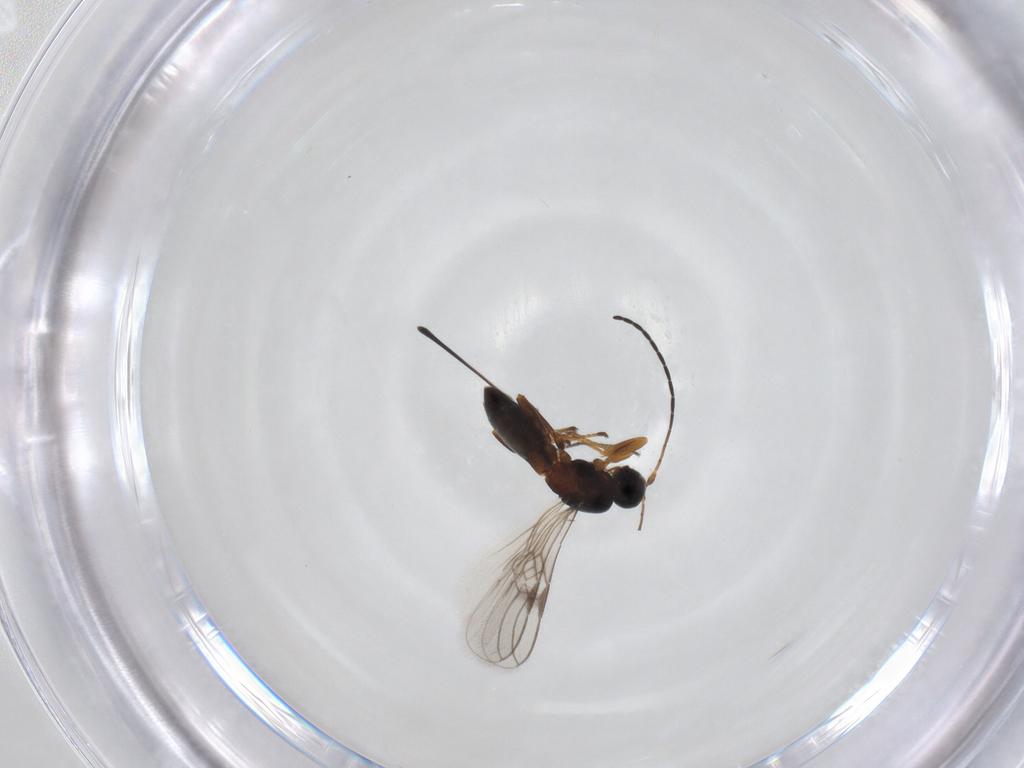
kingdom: Animalia
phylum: Arthropoda
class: Insecta
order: Hymenoptera
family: Braconidae
